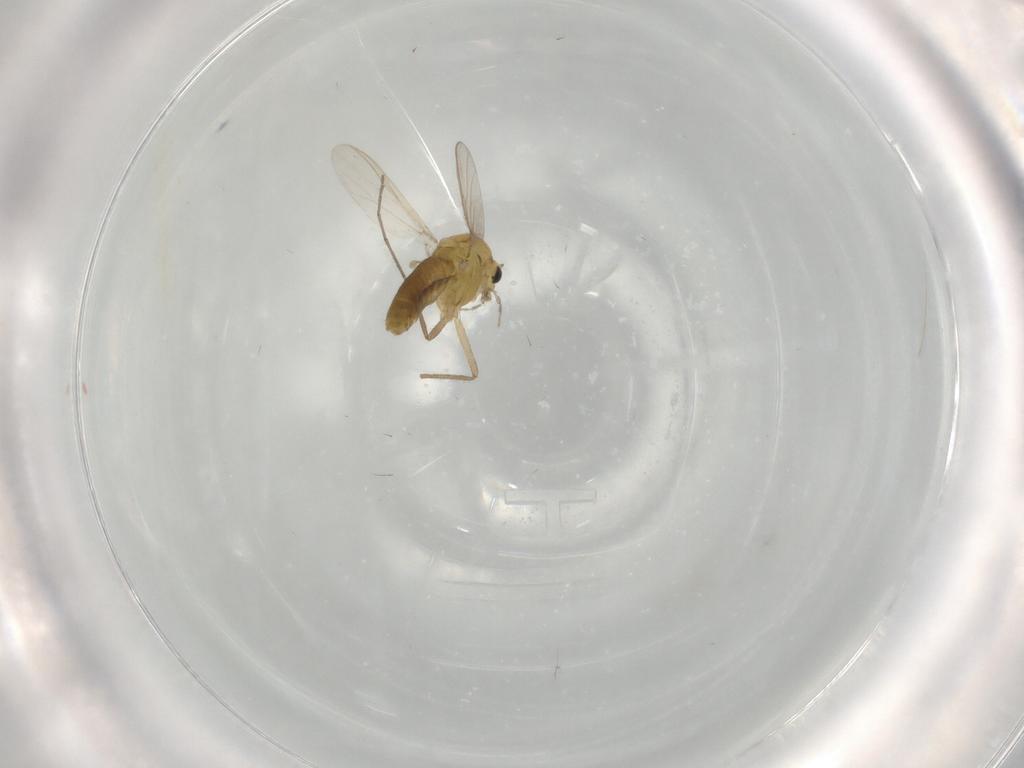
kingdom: Animalia
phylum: Arthropoda
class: Insecta
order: Diptera
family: Chironomidae
